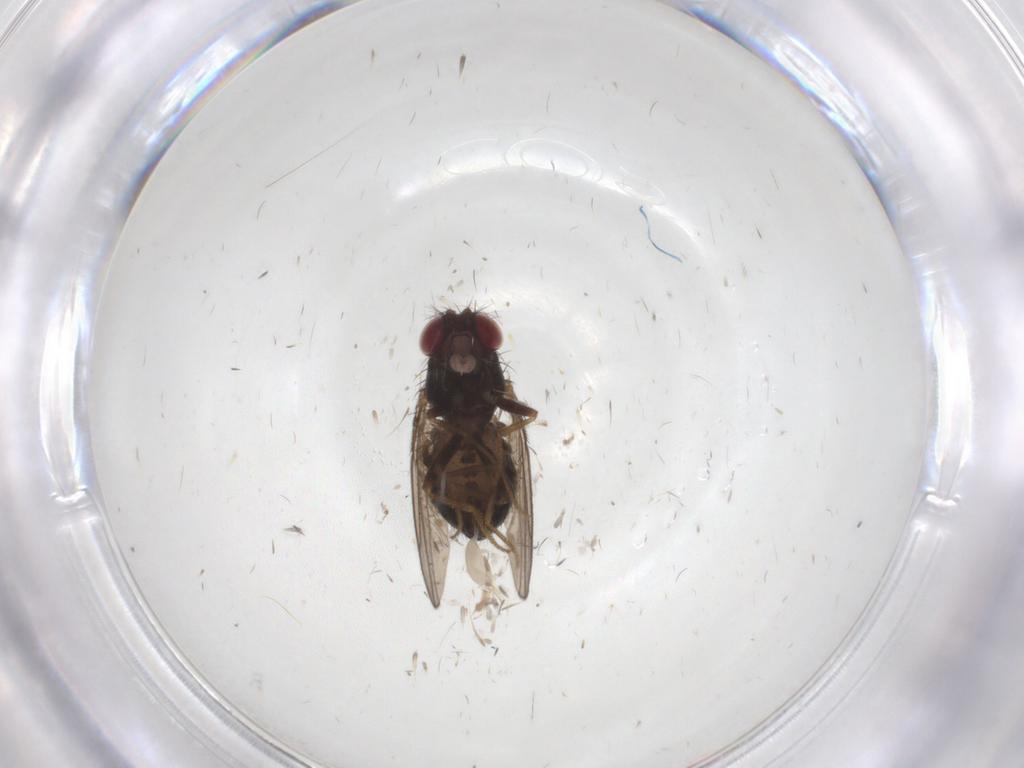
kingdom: Animalia
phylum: Arthropoda
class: Insecta
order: Diptera
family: Drosophilidae
